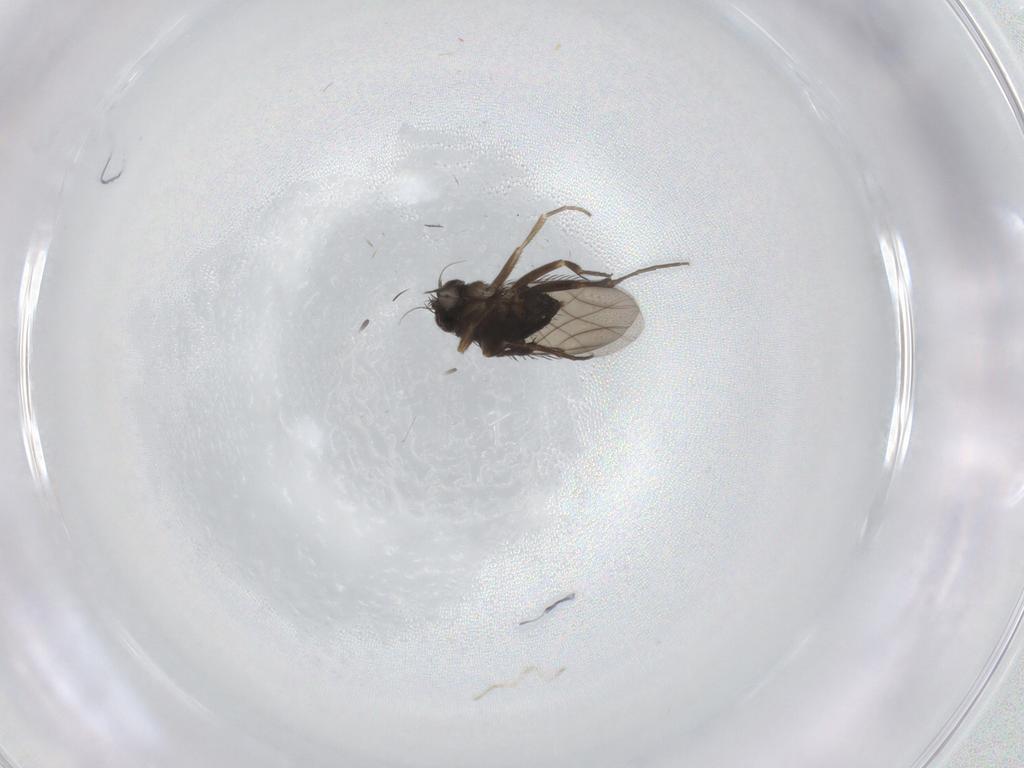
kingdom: Animalia
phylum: Arthropoda
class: Insecta
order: Diptera
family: Phoridae
